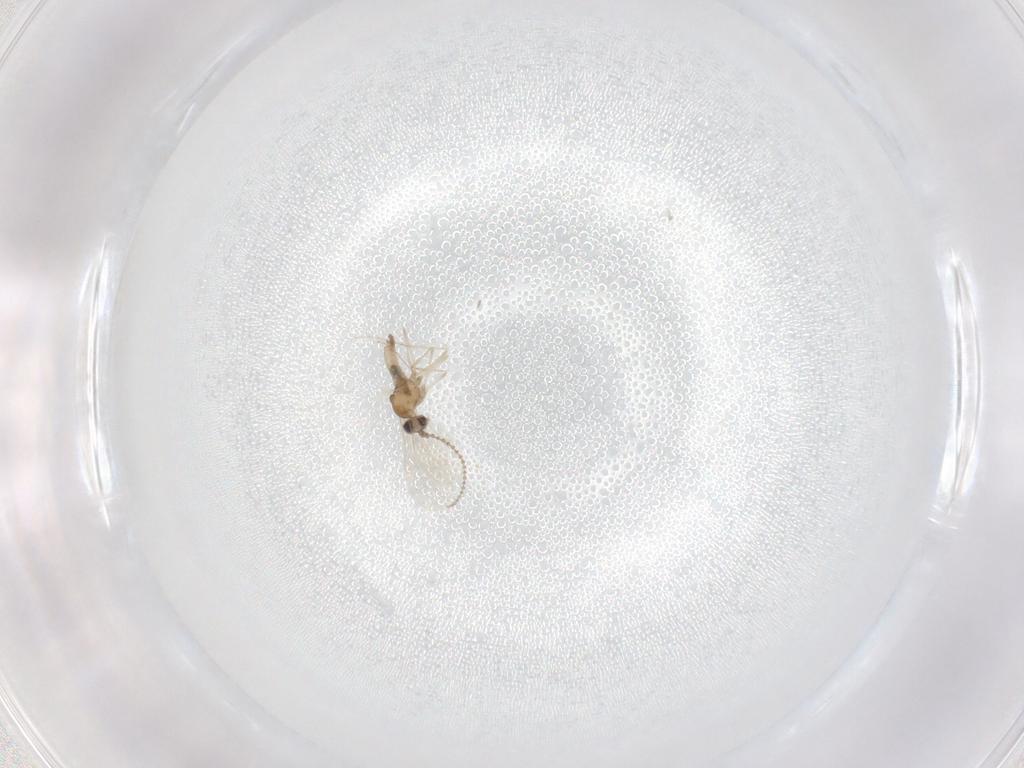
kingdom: Animalia
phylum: Arthropoda
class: Insecta
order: Diptera
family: Cecidomyiidae
